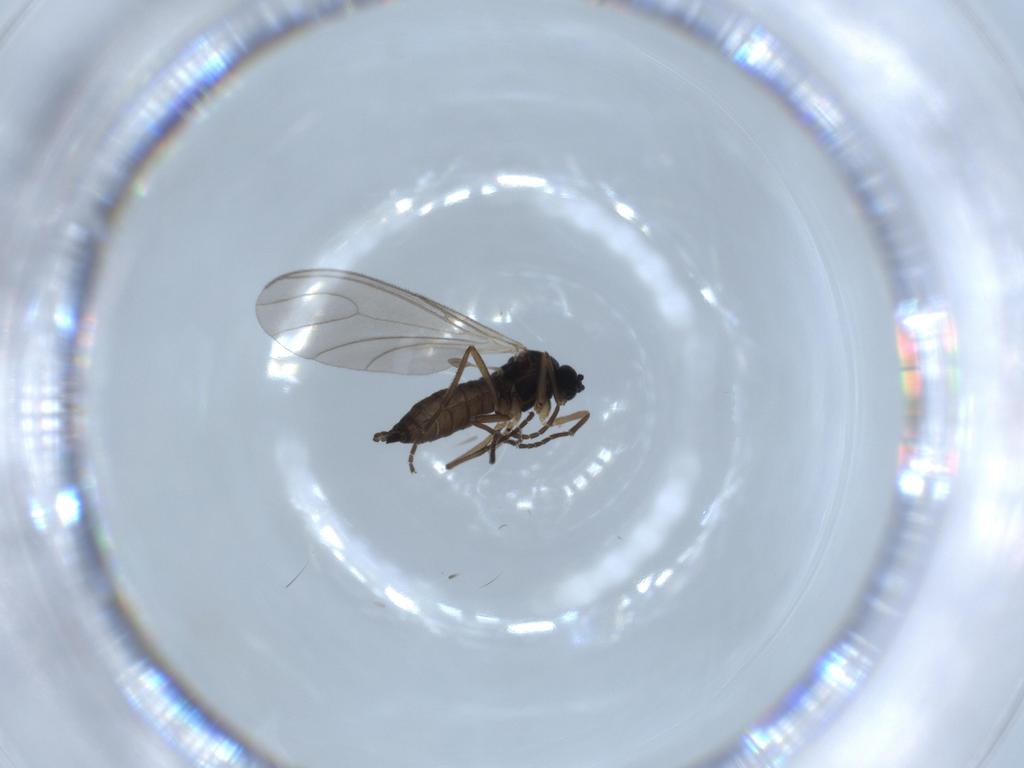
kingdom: Animalia
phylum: Arthropoda
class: Insecta
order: Diptera
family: Sciaridae
